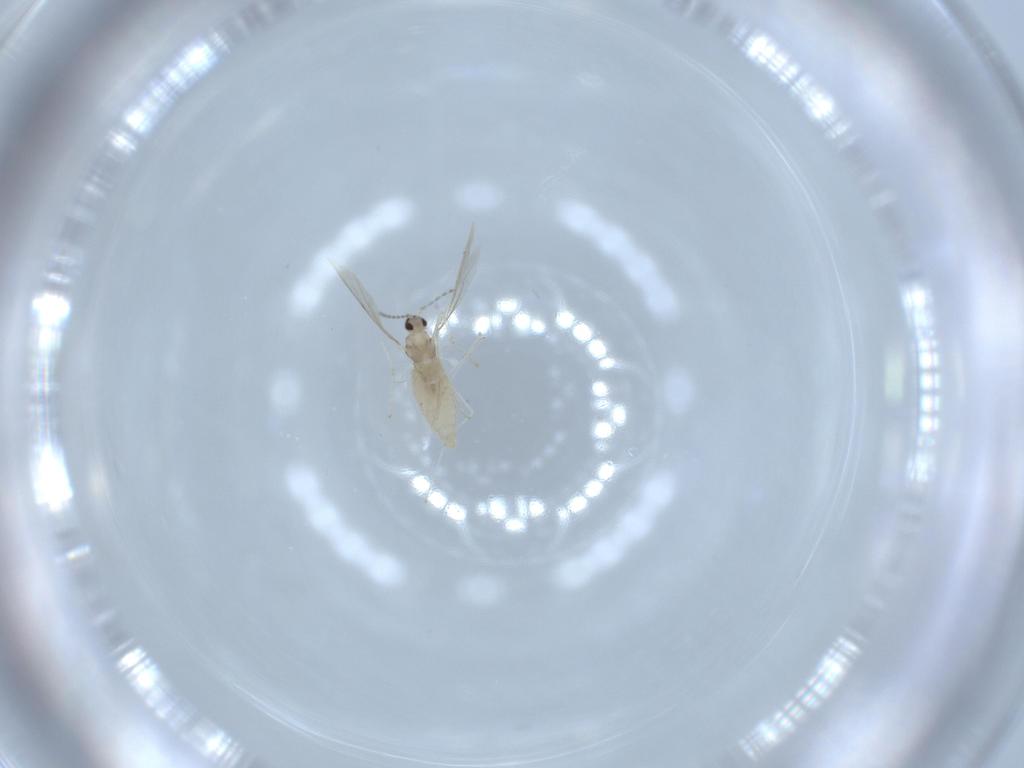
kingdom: Animalia
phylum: Arthropoda
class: Insecta
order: Diptera
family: Cecidomyiidae
